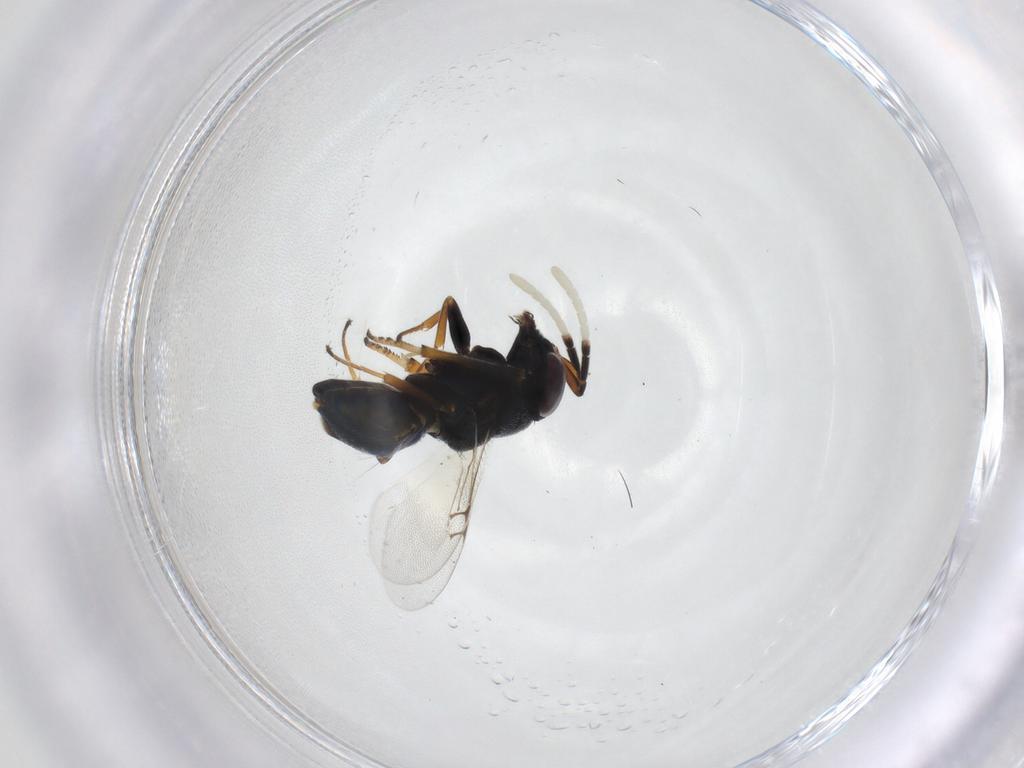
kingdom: Animalia
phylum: Arthropoda
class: Insecta
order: Hymenoptera
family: Encyrtidae
